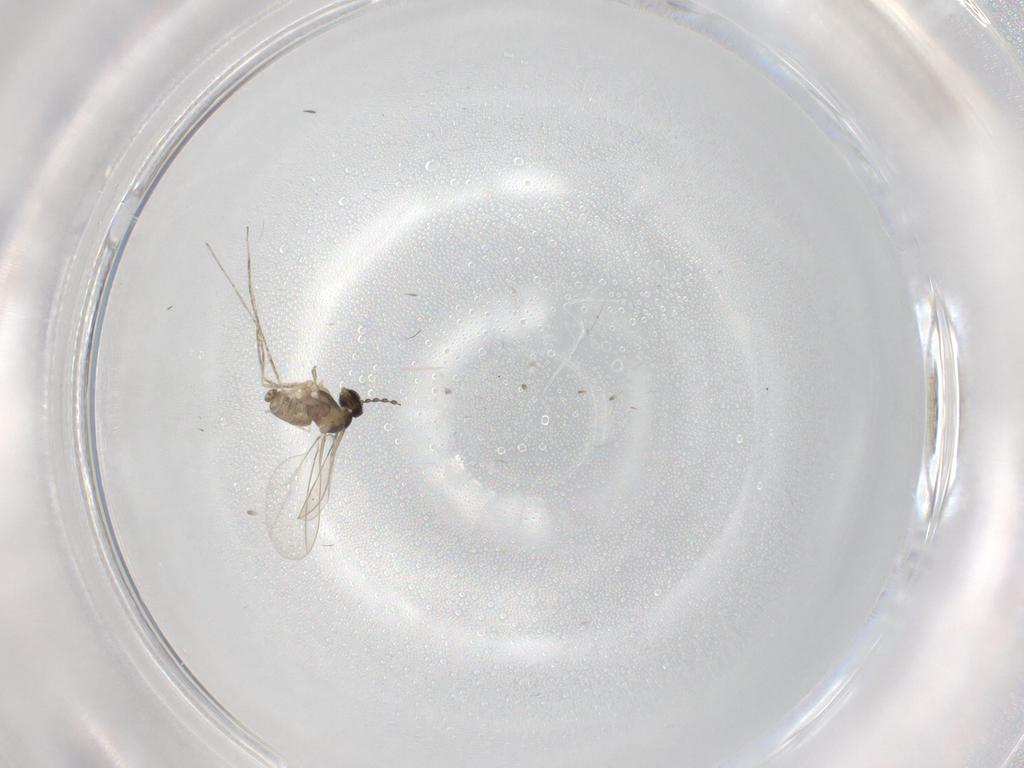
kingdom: Animalia
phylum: Arthropoda
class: Insecta
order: Diptera
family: Cecidomyiidae
